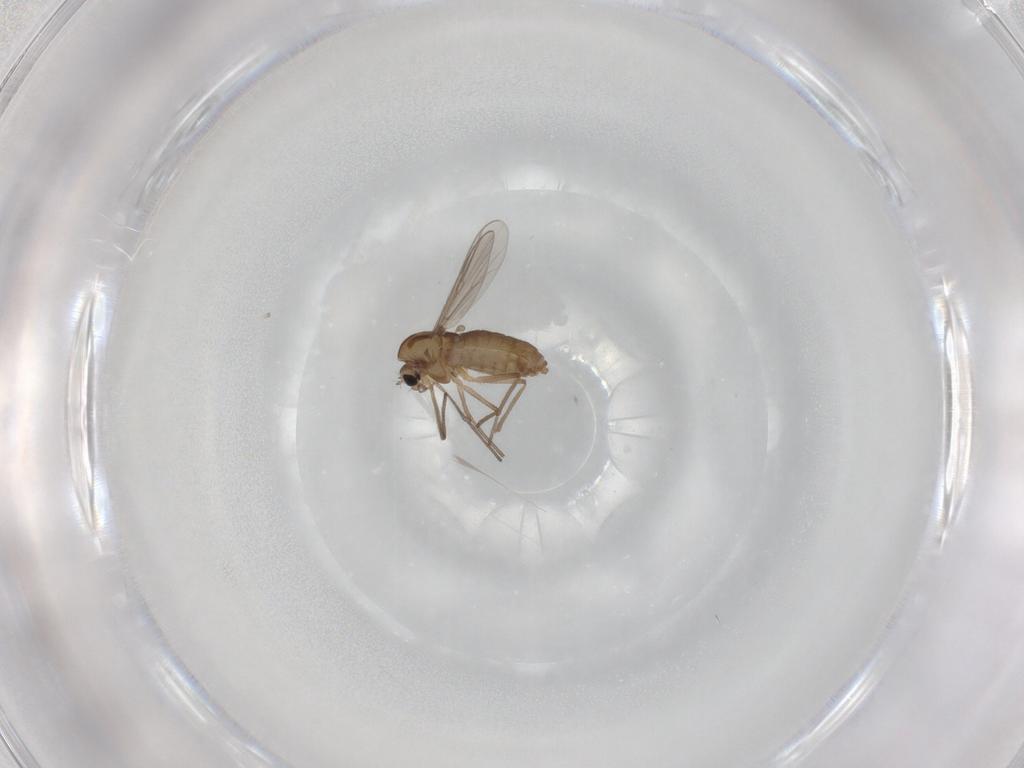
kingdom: Animalia
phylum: Arthropoda
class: Insecta
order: Diptera
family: Chironomidae
